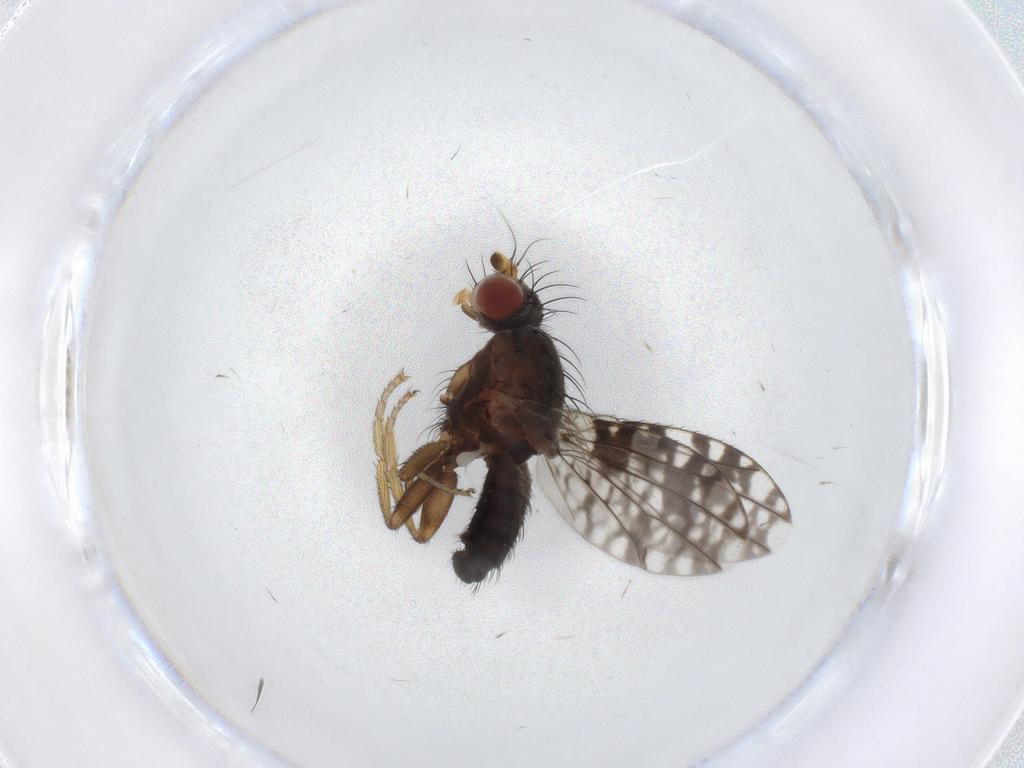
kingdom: Animalia
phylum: Arthropoda
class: Insecta
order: Diptera
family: Tephritidae
